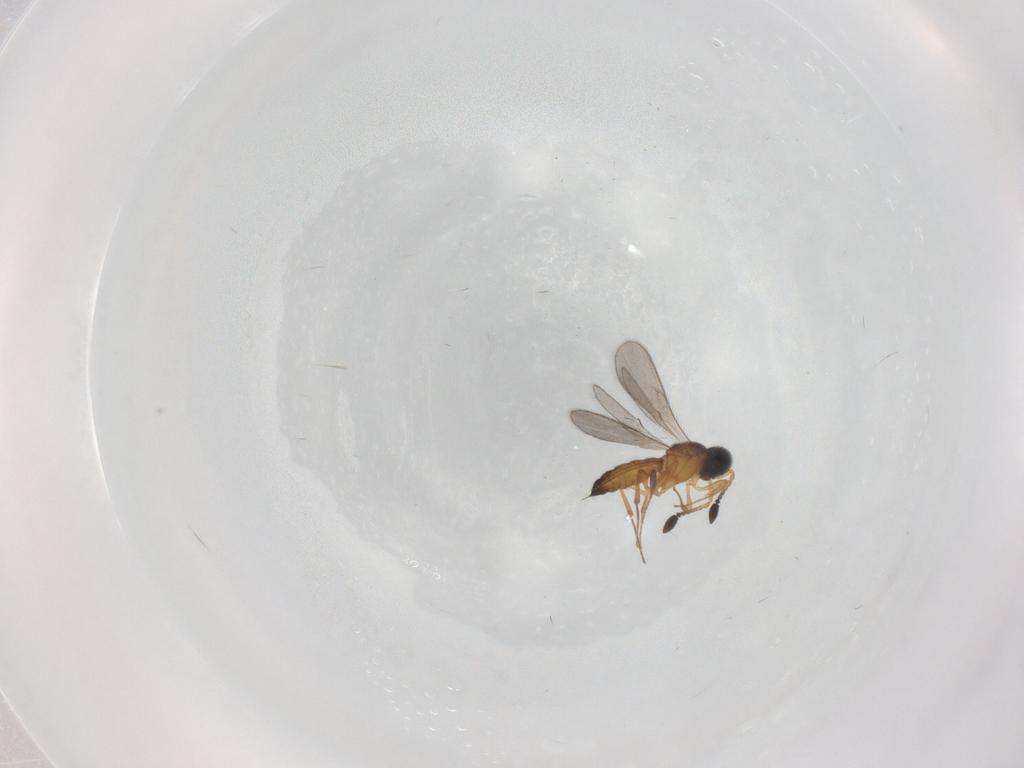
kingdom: Animalia
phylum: Arthropoda
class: Insecta
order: Hymenoptera
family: Scelionidae
